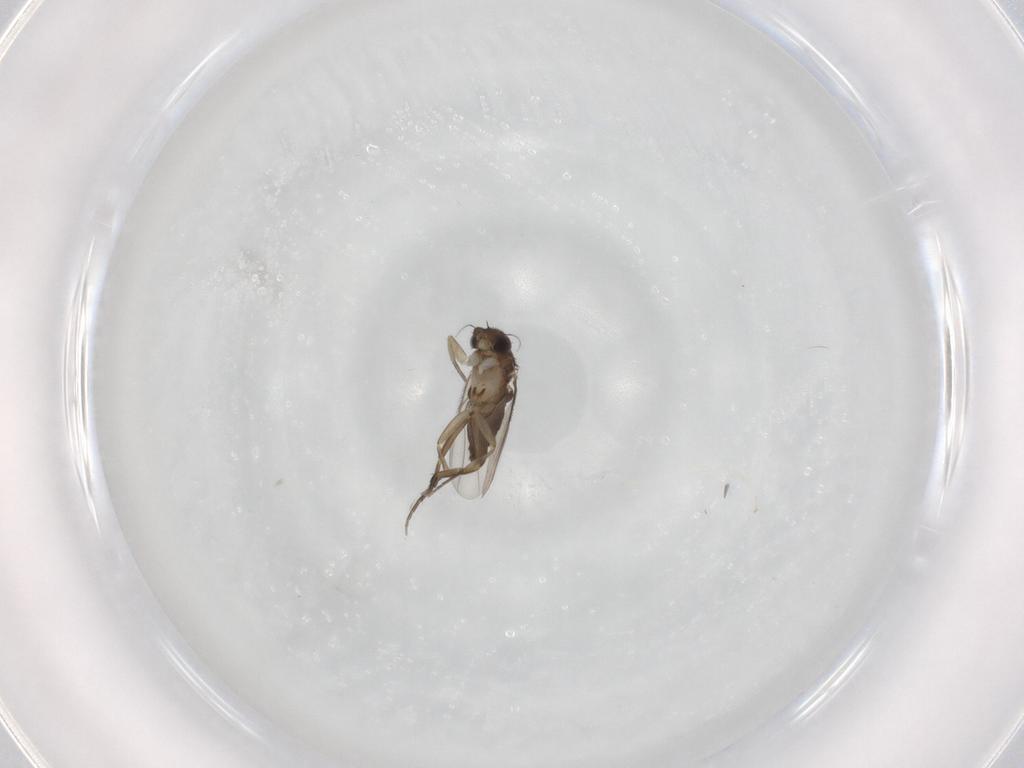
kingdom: Animalia
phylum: Arthropoda
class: Insecta
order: Diptera
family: Phoridae
